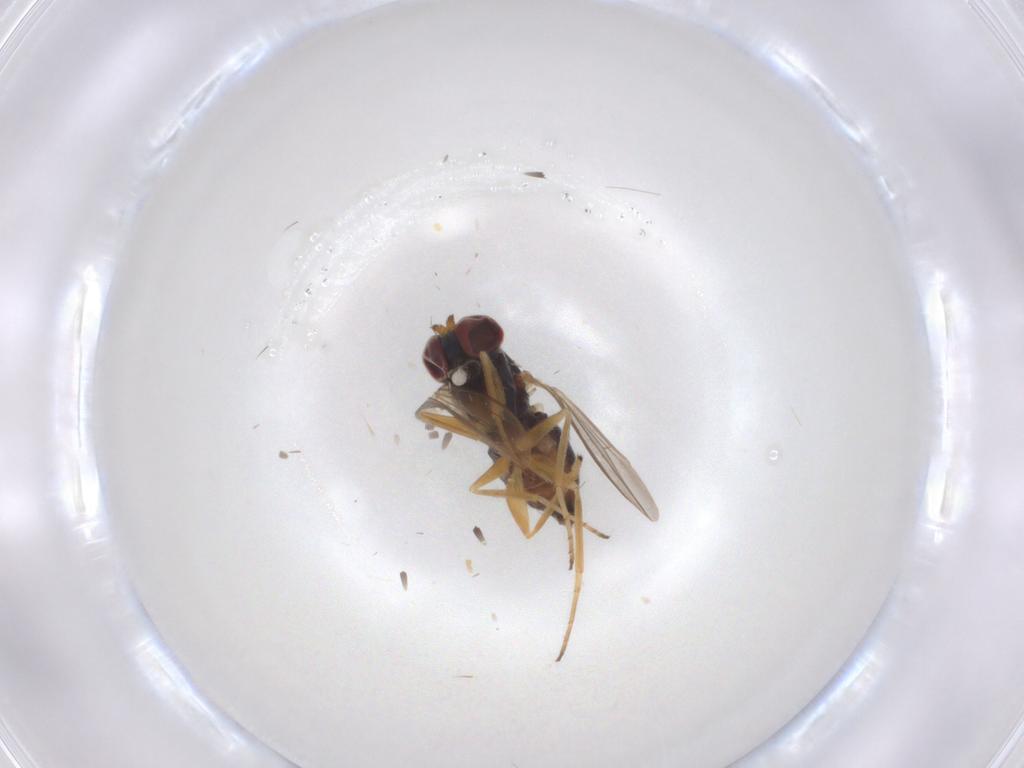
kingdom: Animalia
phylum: Arthropoda
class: Insecta
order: Diptera
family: Dolichopodidae
